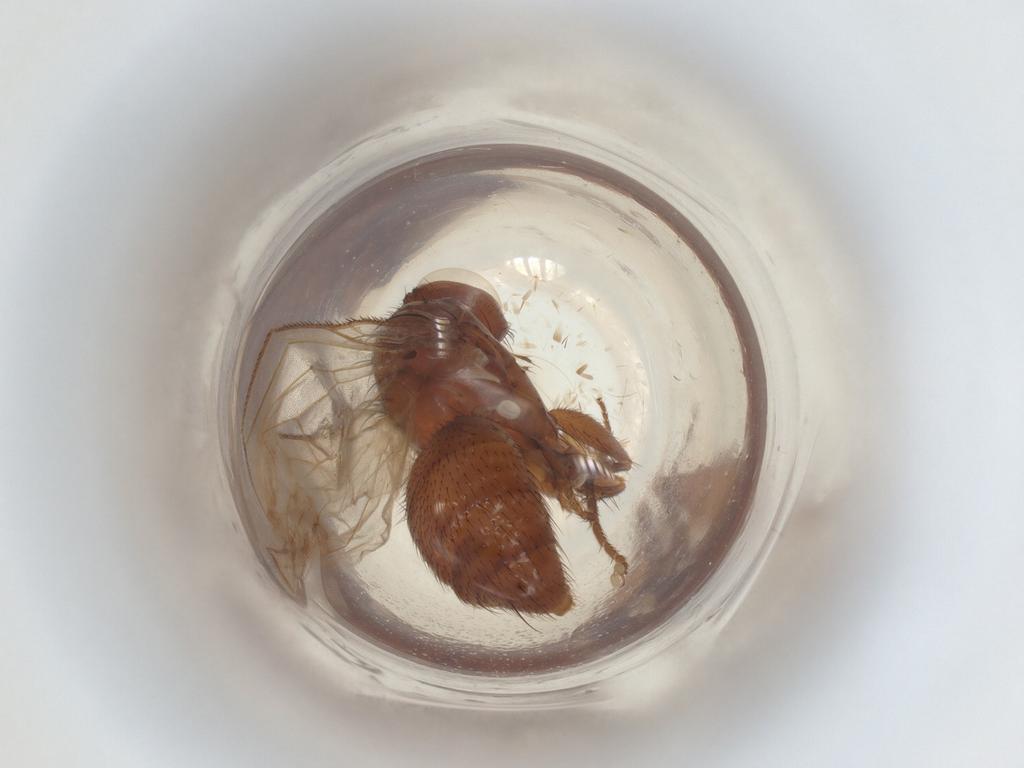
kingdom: Animalia
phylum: Arthropoda
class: Insecta
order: Diptera
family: Muscidae
